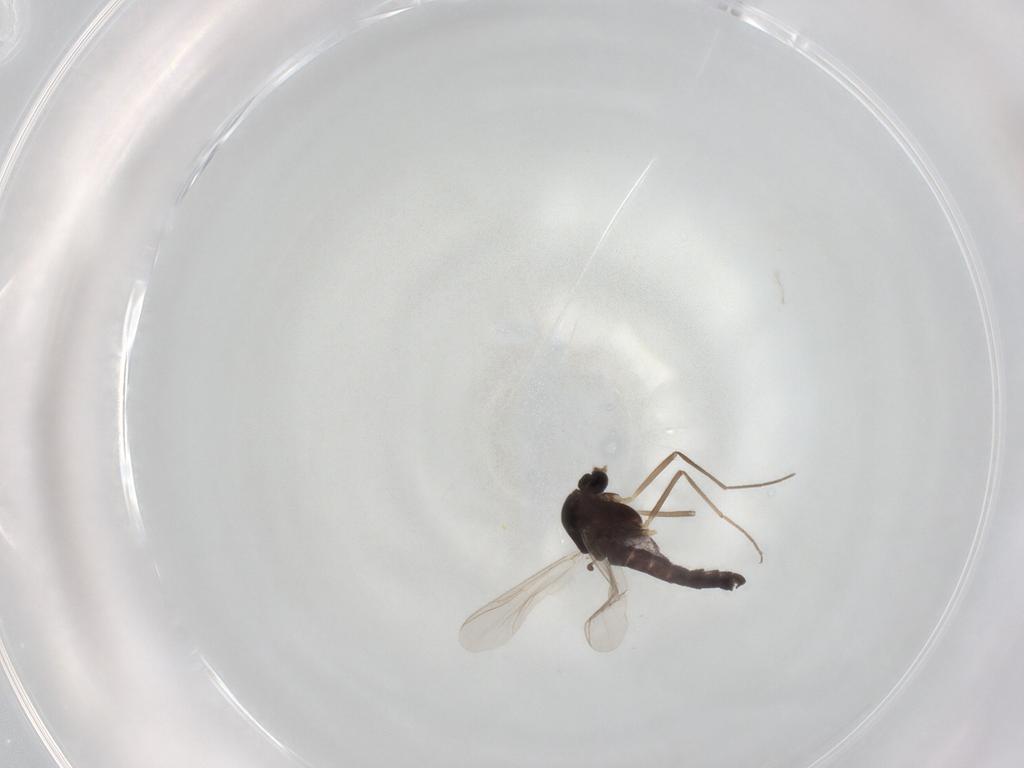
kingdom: Animalia
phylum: Arthropoda
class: Insecta
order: Diptera
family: Chironomidae
